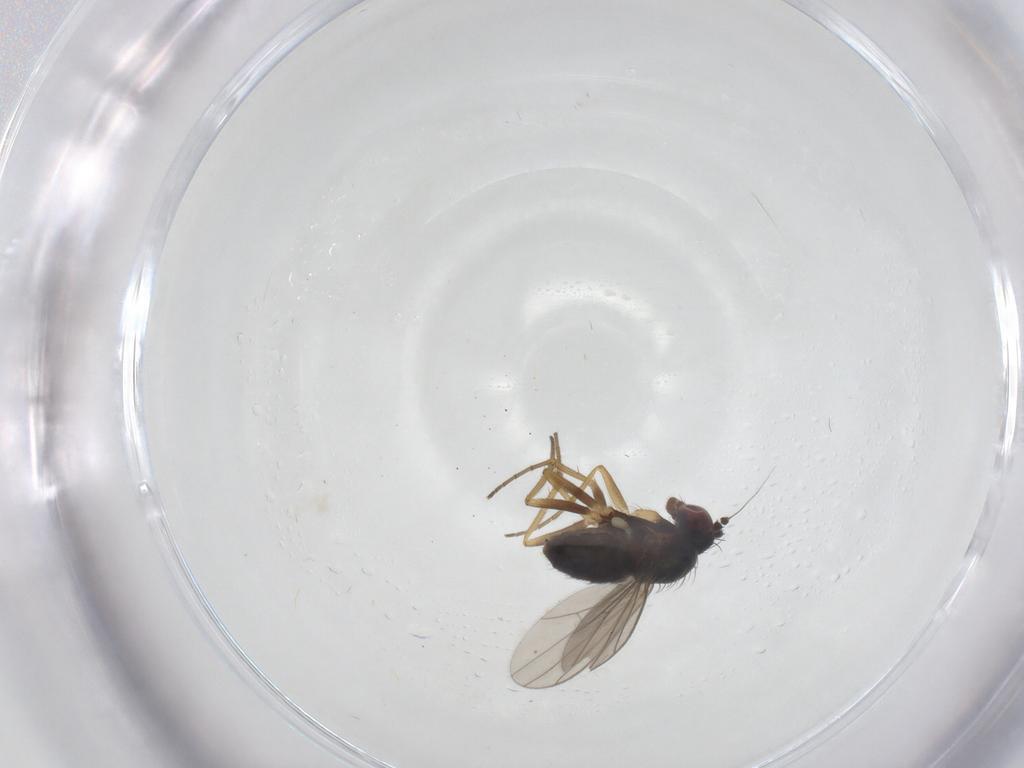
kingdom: Animalia
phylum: Arthropoda
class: Insecta
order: Diptera
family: Dolichopodidae
